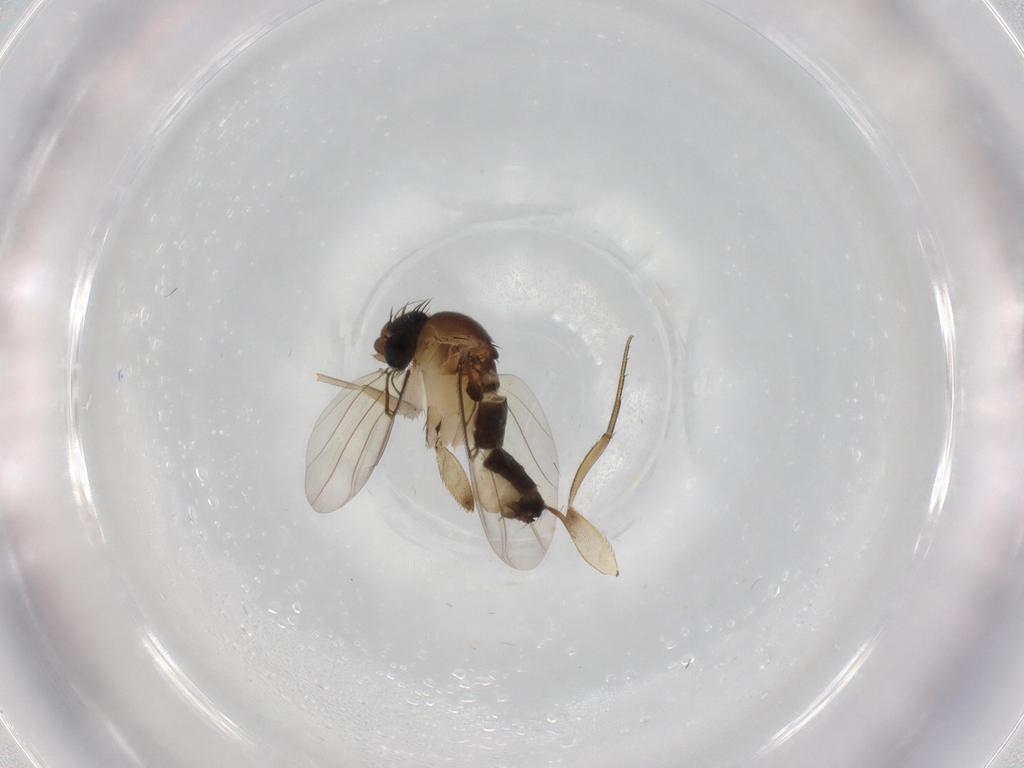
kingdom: Animalia
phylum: Arthropoda
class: Insecta
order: Diptera
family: Phoridae
